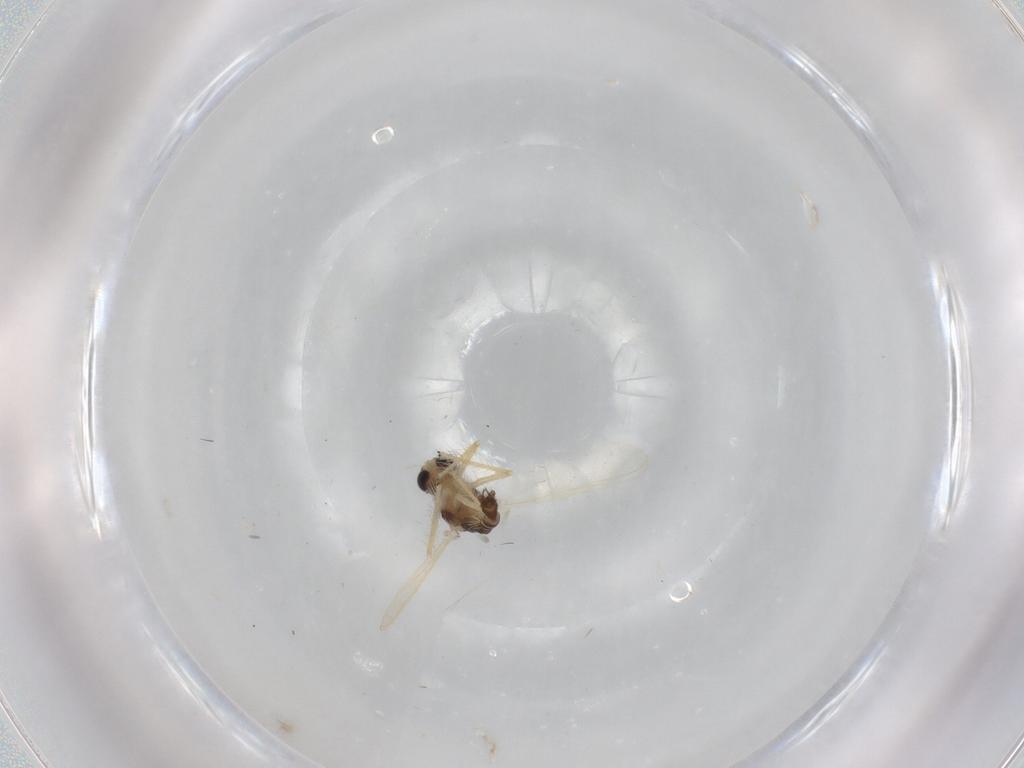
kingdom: Animalia
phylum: Arthropoda
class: Insecta
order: Diptera
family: Chironomidae
